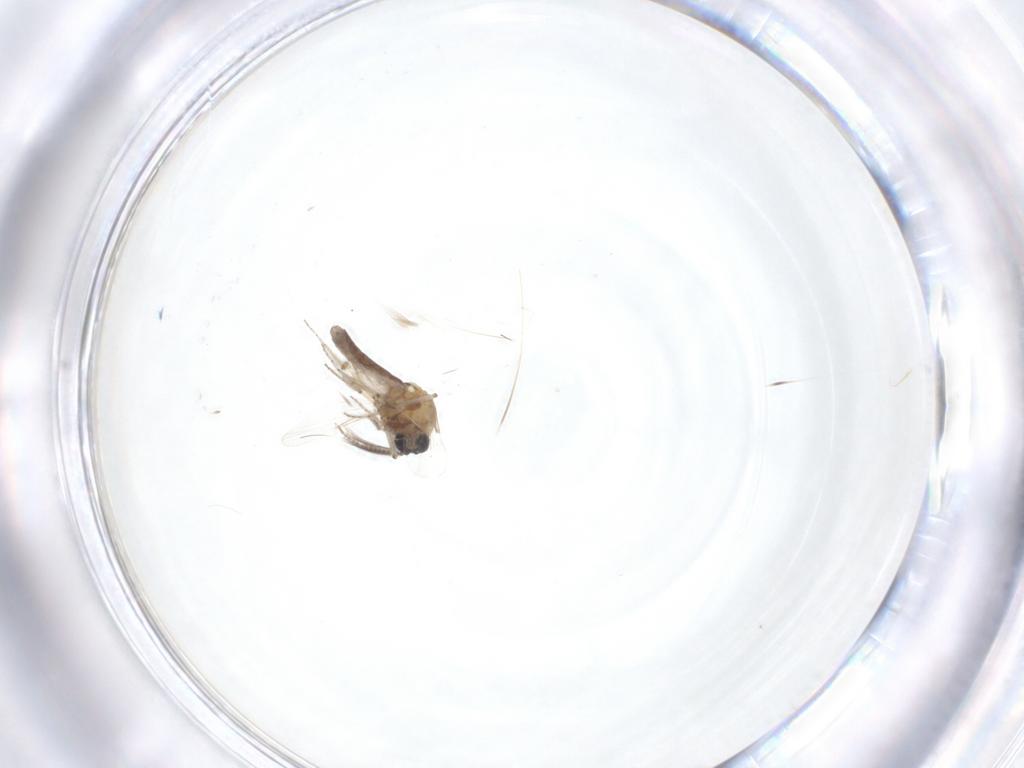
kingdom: Animalia
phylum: Arthropoda
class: Insecta
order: Diptera
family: Ceratopogonidae
